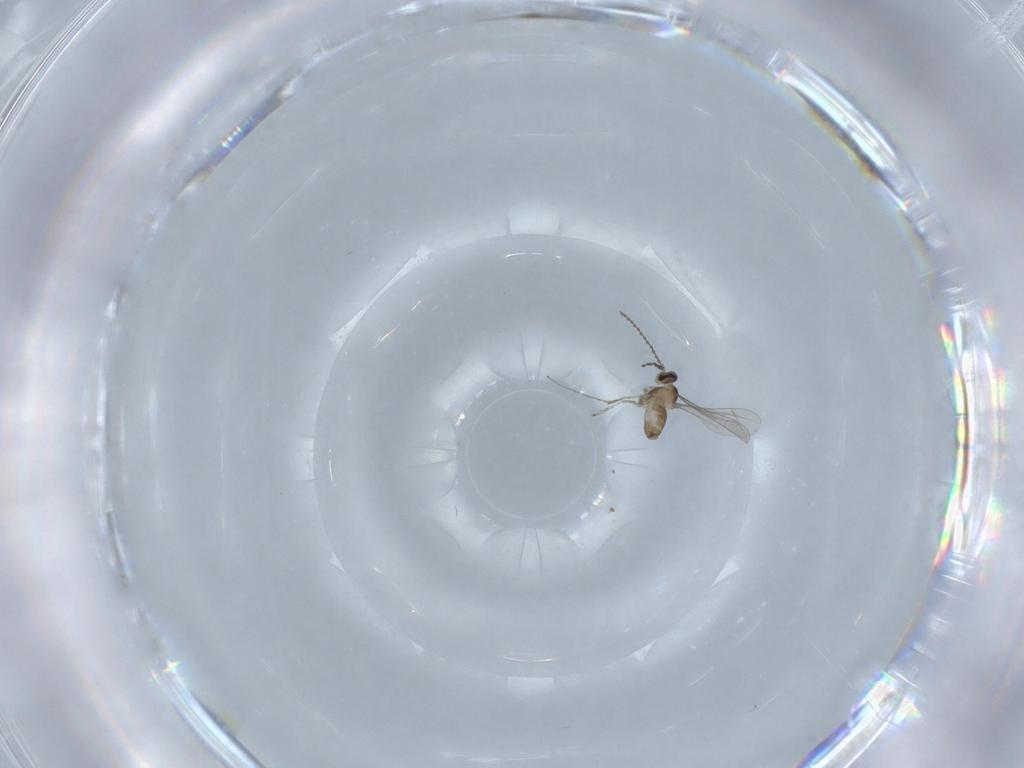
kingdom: Animalia
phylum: Arthropoda
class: Insecta
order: Diptera
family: Cecidomyiidae
